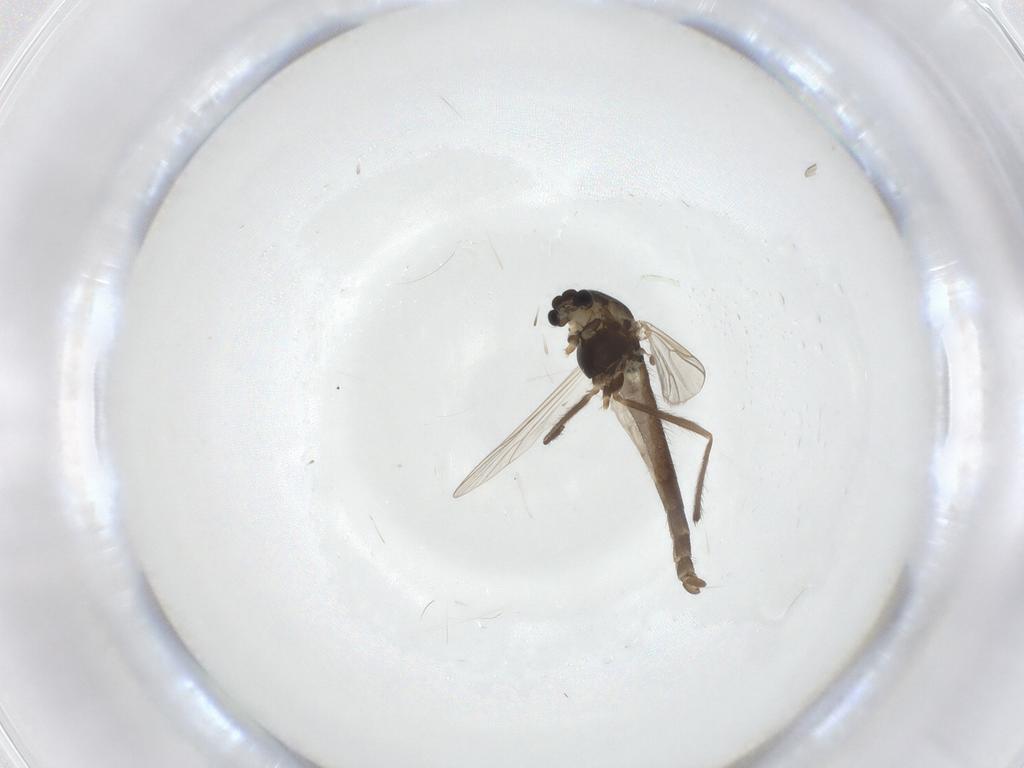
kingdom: Animalia
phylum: Arthropoda
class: Insecta
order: Diptera
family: Chironomidae
